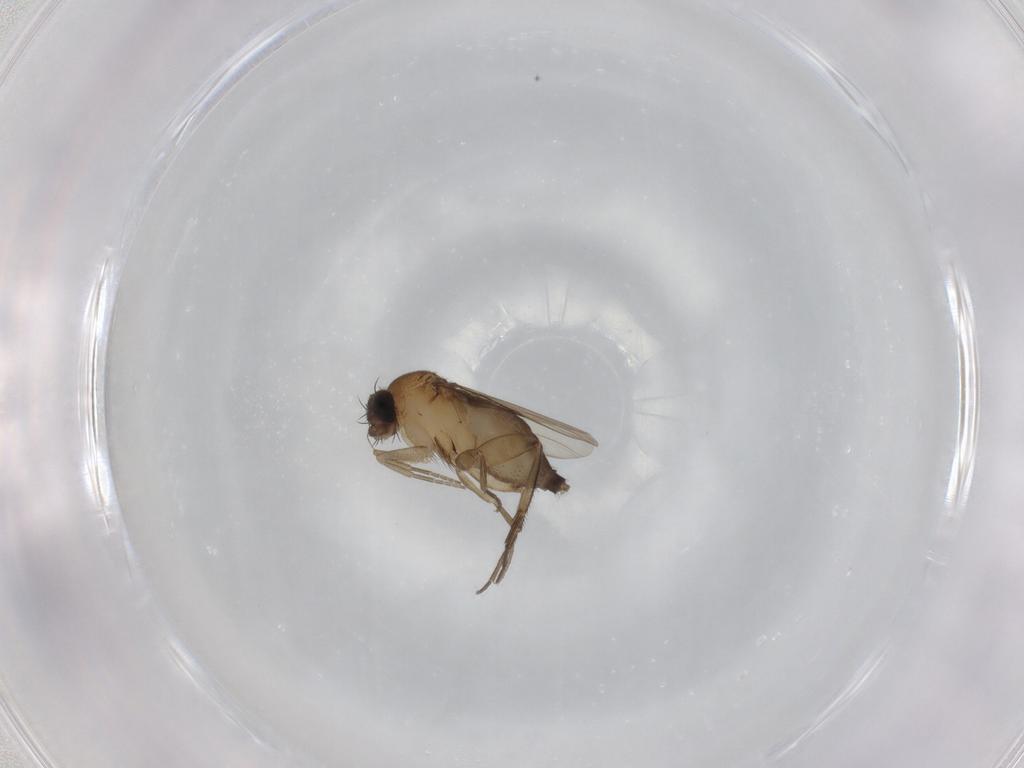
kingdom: Animalia
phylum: Arthropoda
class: Insecta
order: Diptera
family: Phoridae
